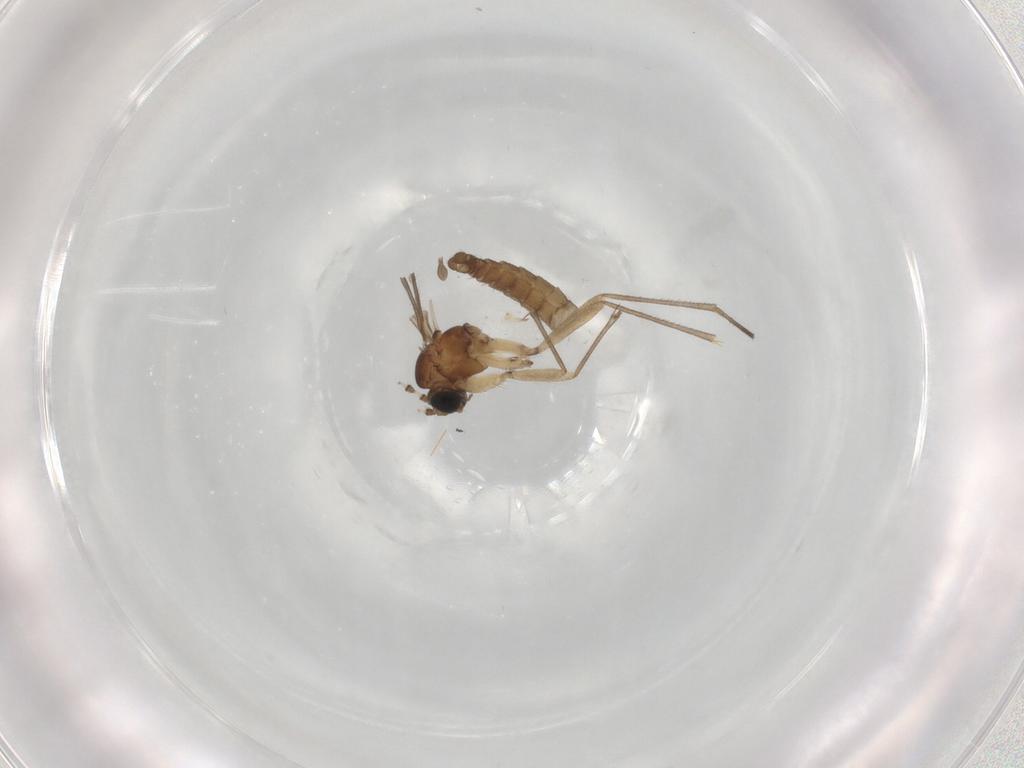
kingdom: Animalia
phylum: Arthropoda
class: Insecta
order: Diptera
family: Sciaridae
